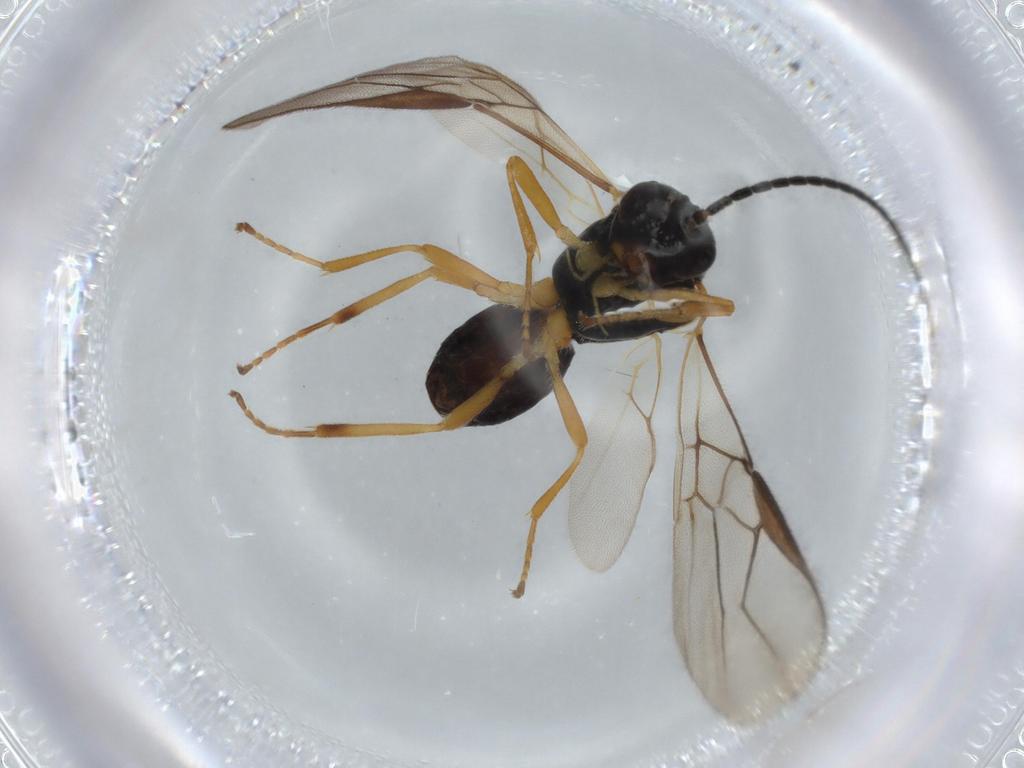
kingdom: Animalia
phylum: Arthropoda
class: Insecta
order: Hymenoptera
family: Braconidae
